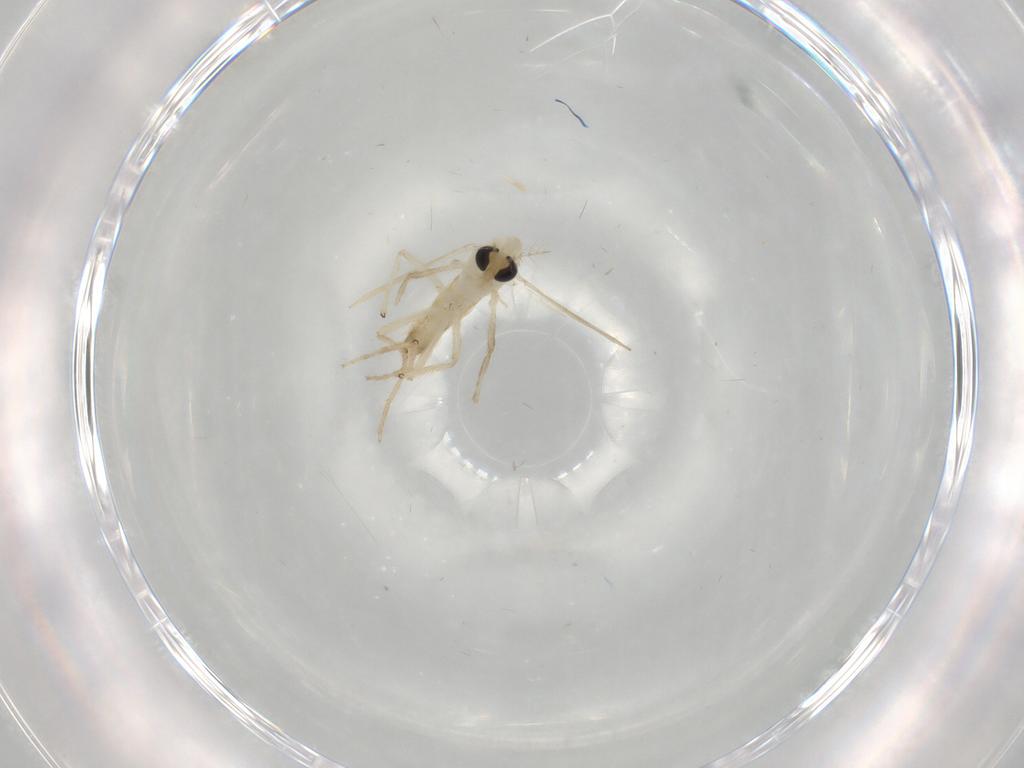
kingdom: Animalia
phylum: Arthropoda
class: Insecta
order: Diptera
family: Chironomidae
